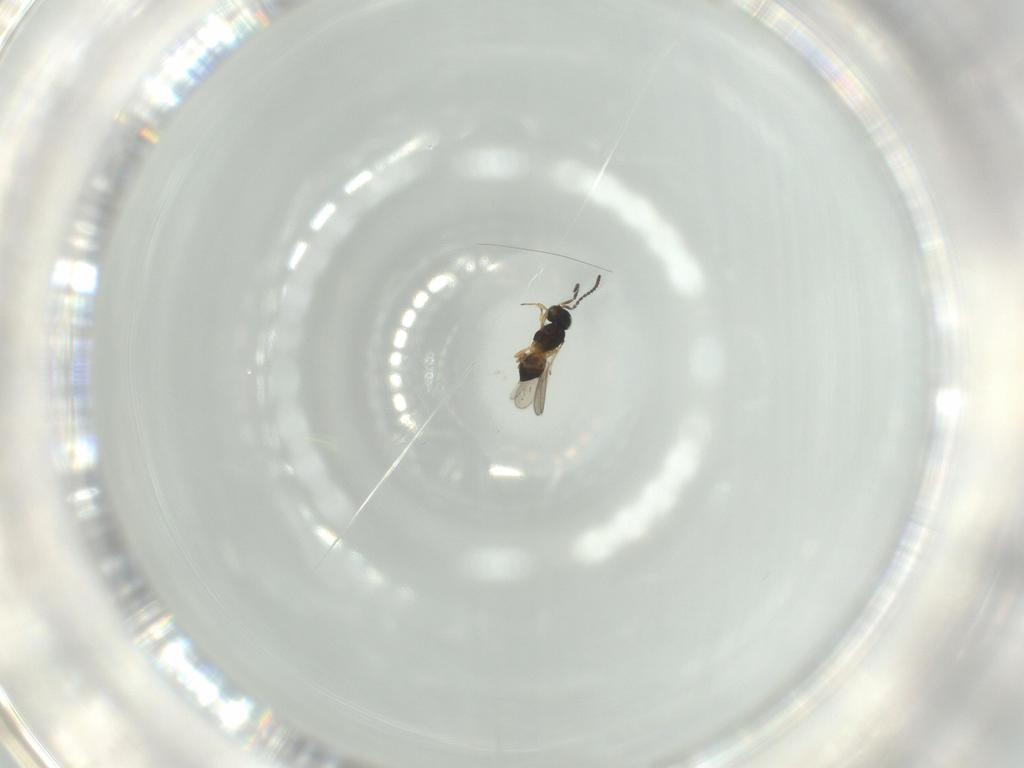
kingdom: Animalia
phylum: Arthropoda
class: Insecta
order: Hymenoptera
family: Scelionidae
